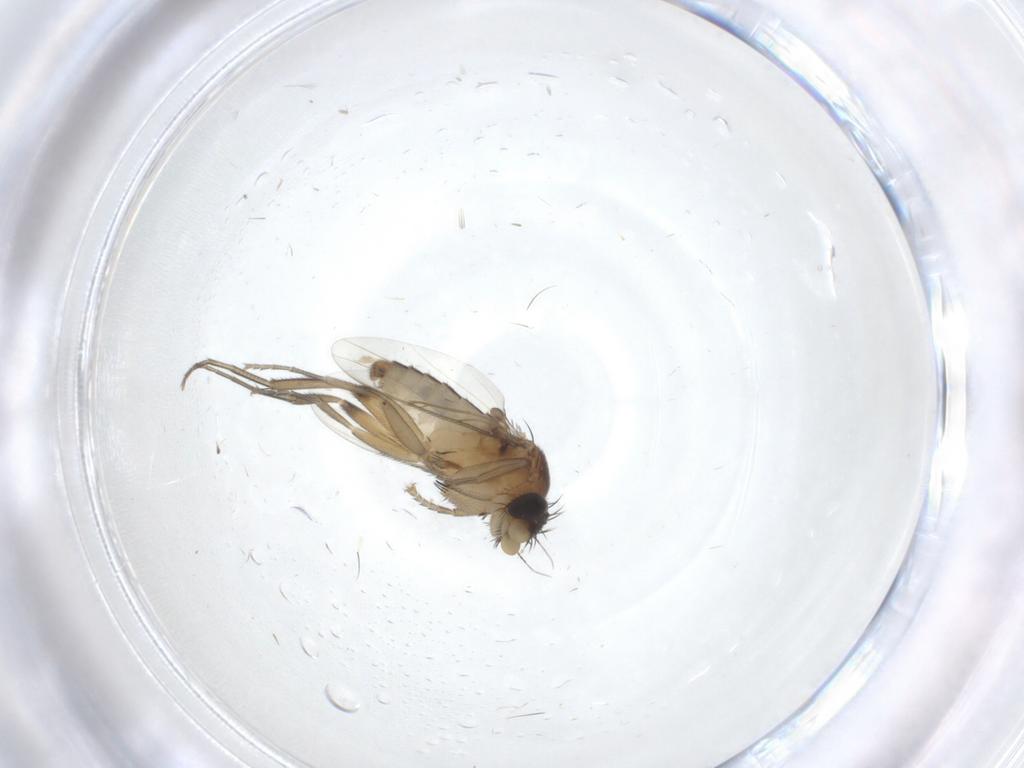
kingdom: Animalia
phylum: Arthropoda
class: Insecta
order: Diptera
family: Phoridae
